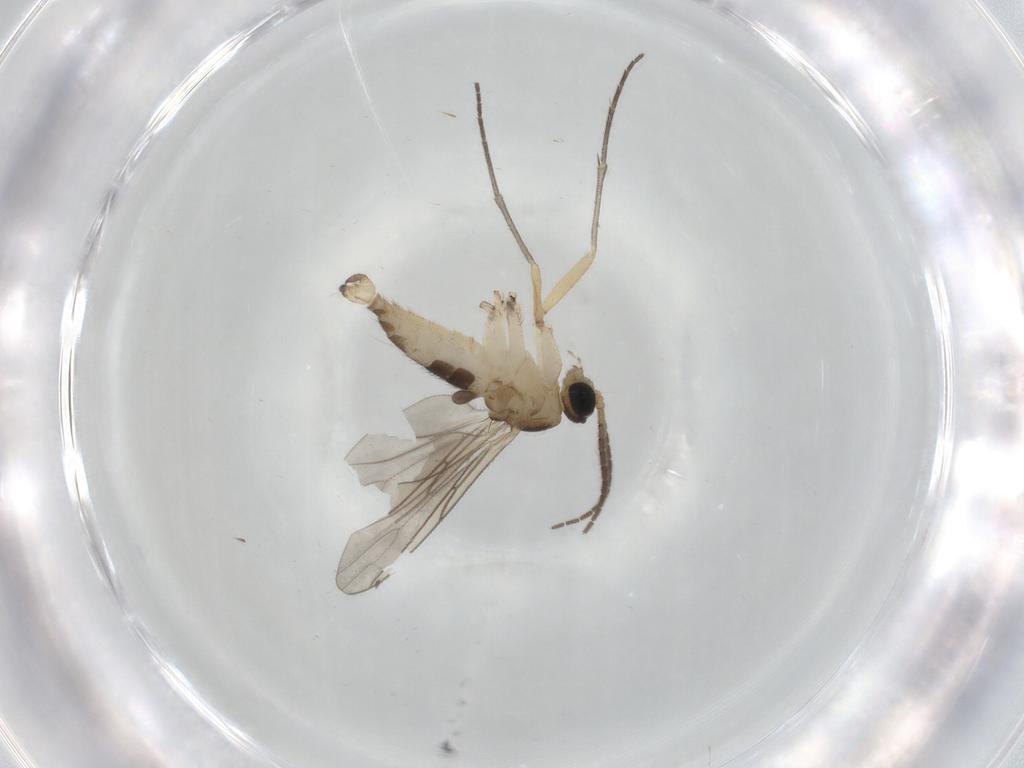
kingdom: Animalia
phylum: Arthropoda
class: Insecta
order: Diptera
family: Sciaridae
